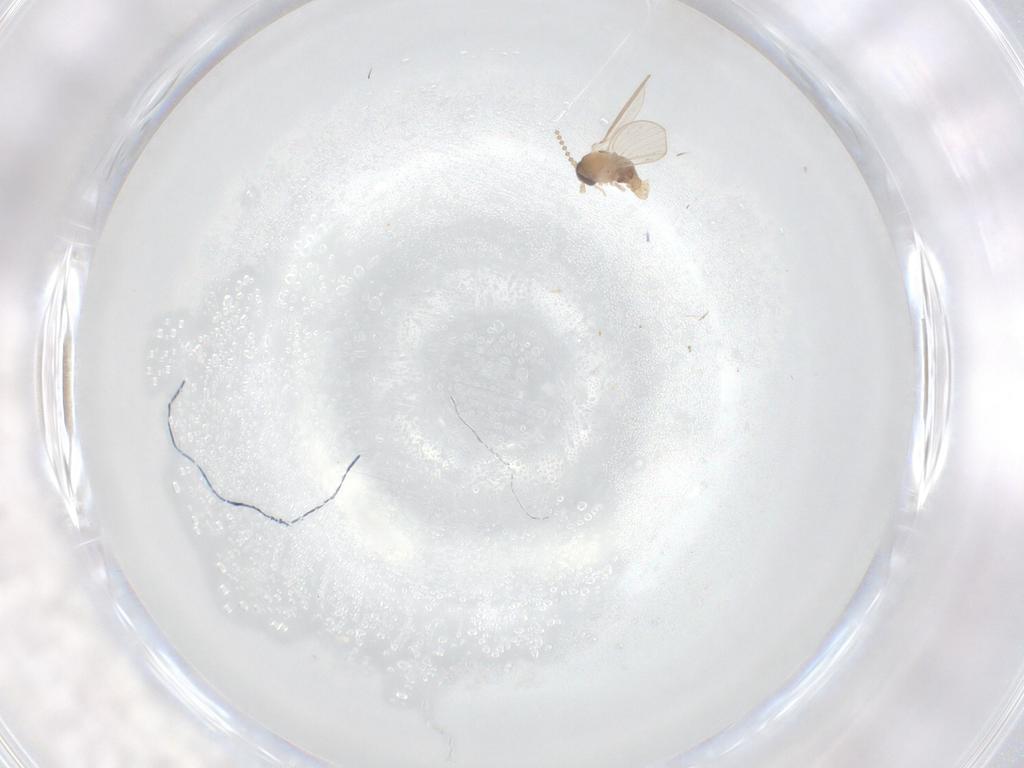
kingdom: Animalia
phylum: Arthropoda
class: Insecta
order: Diptera
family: Psychodidae
